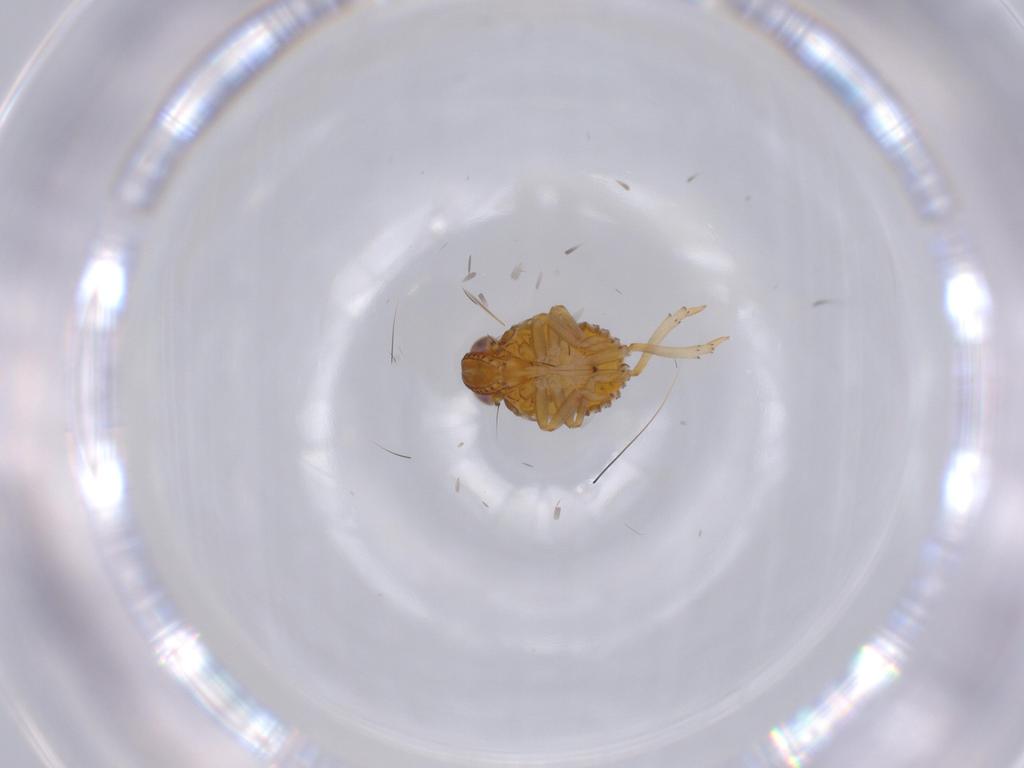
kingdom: Animalia
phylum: Arthropoda
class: Insecta
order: Hemiptera
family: Issidae
